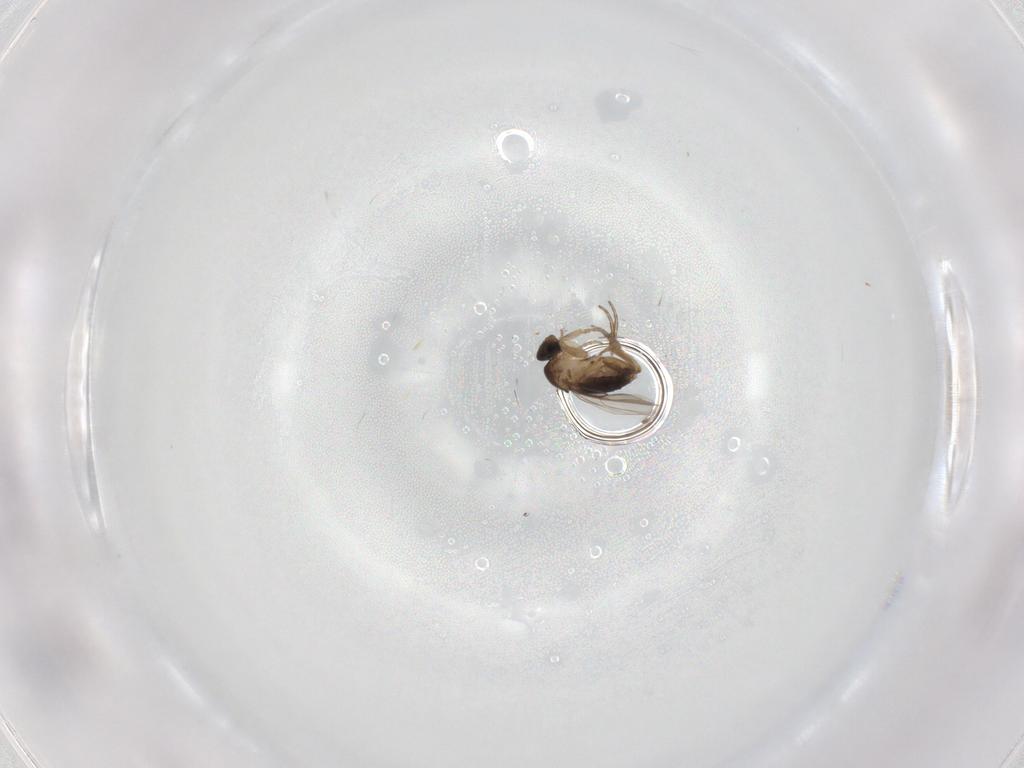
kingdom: Animalia
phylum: Arthropoda
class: Insecta
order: Diptera
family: Phoridae
